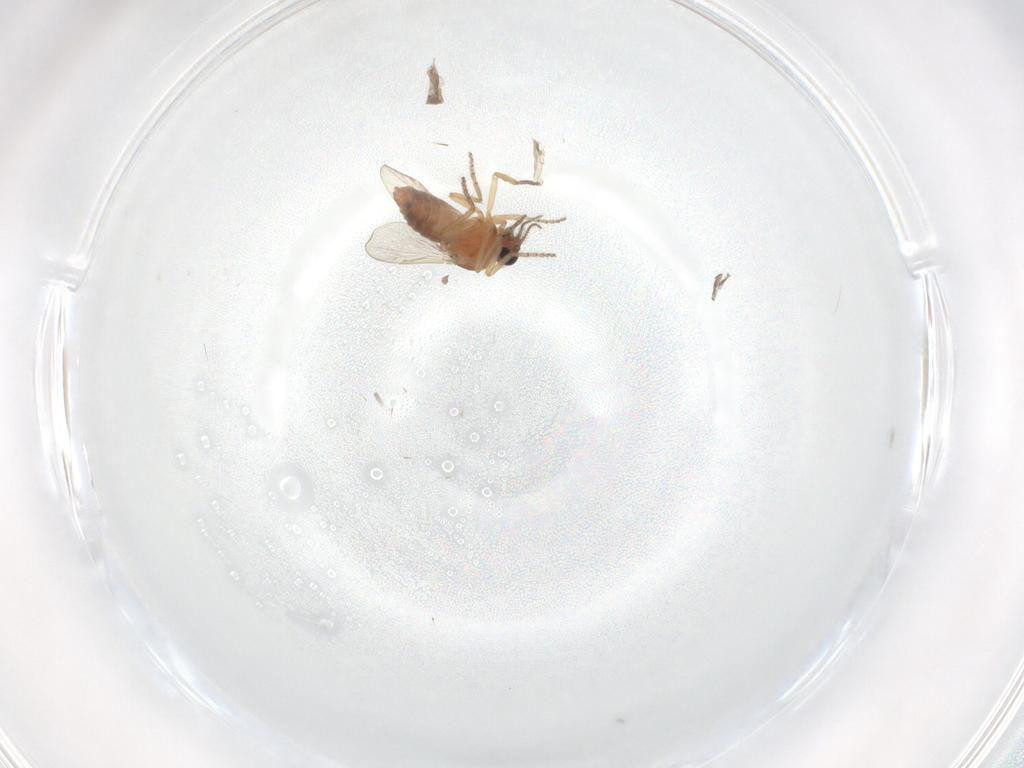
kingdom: Animalia
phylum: Arthropoda
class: Insecta
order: Diptera
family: Ceratopogonidae
